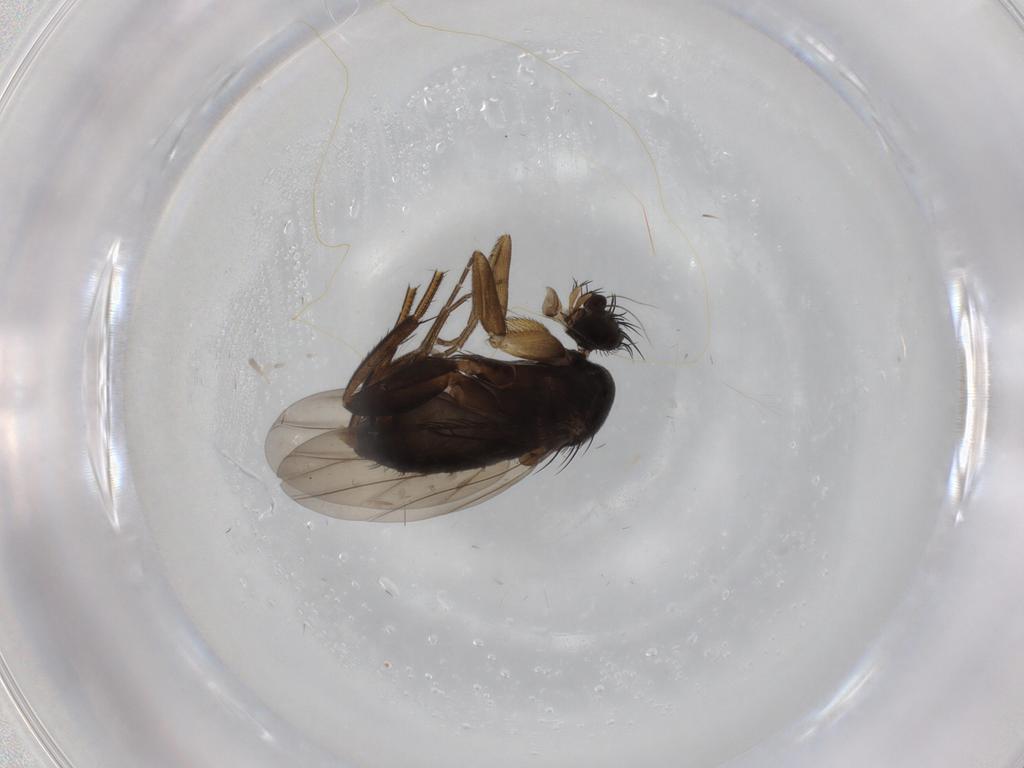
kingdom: Animalia
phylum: Arthropoda
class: Insecta
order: Diptera
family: Phoridae
